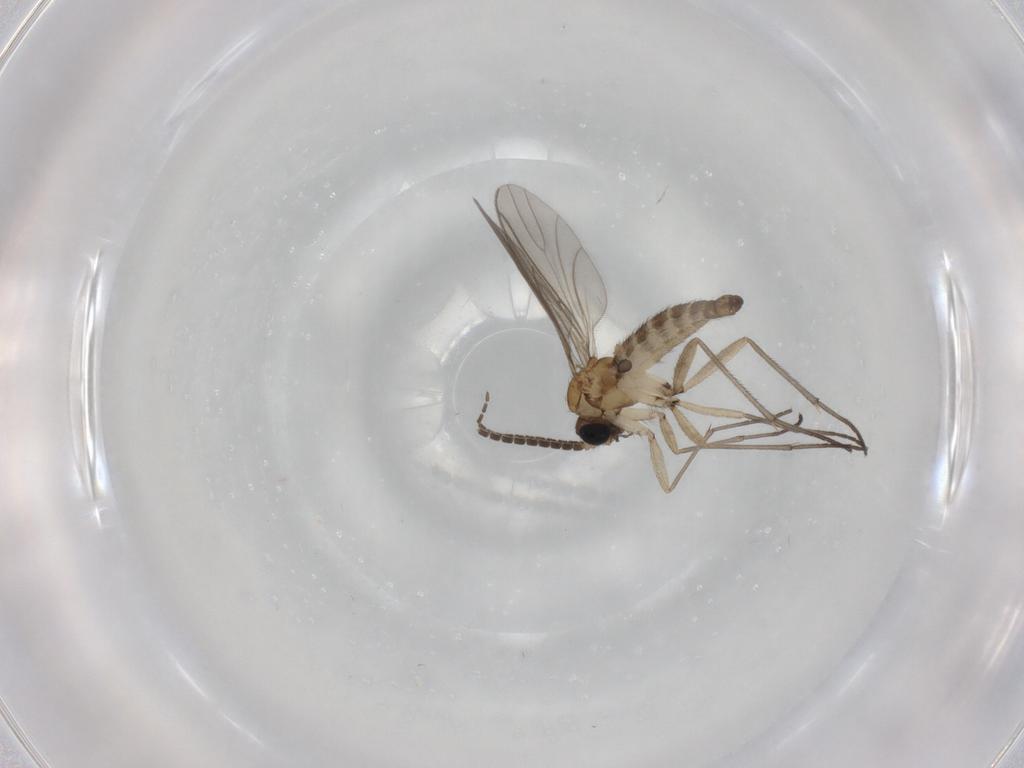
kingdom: Animalia
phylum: Arthropoda
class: Insecta
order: Diptera
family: Sciaridae
